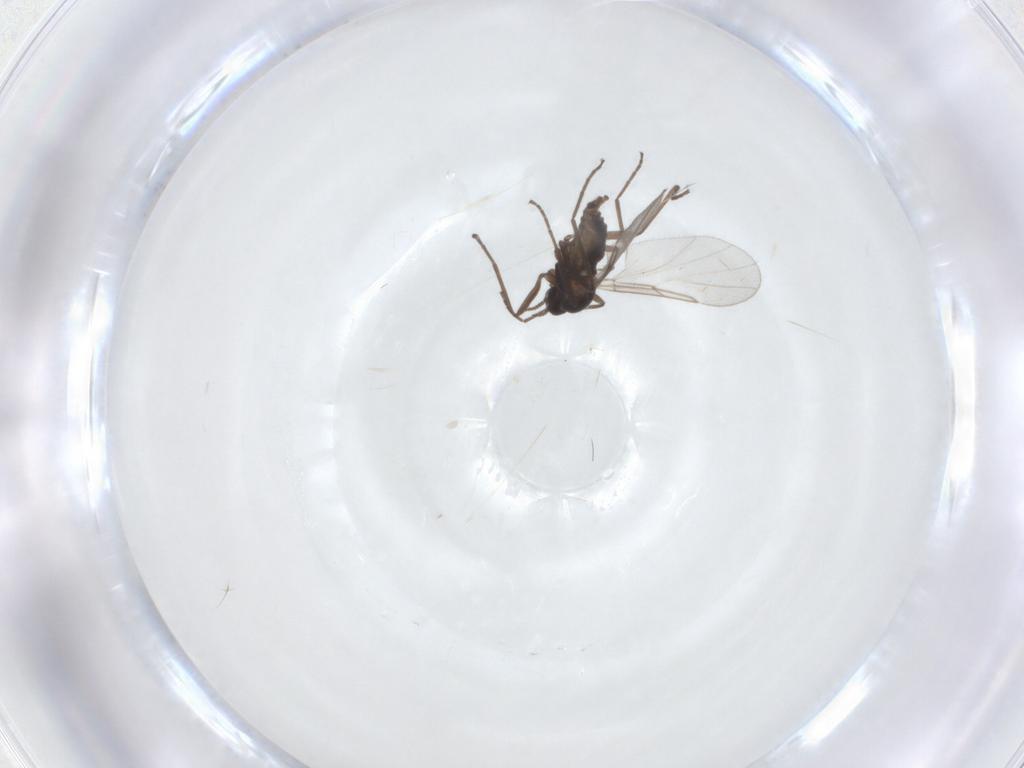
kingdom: Animalia
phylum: Arthropoda
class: Insecta
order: Diptera
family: Cecidomyiidae
